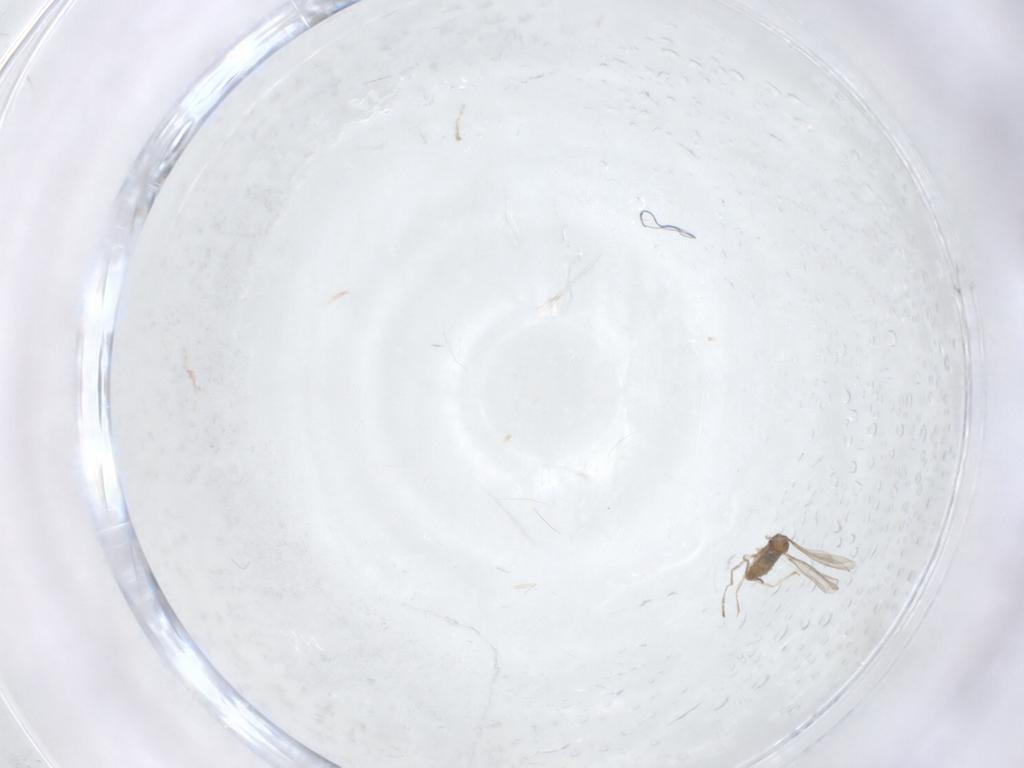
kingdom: Animalia
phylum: Arthropoda
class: Insecta
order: Diptera
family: Cecidomyiidae
